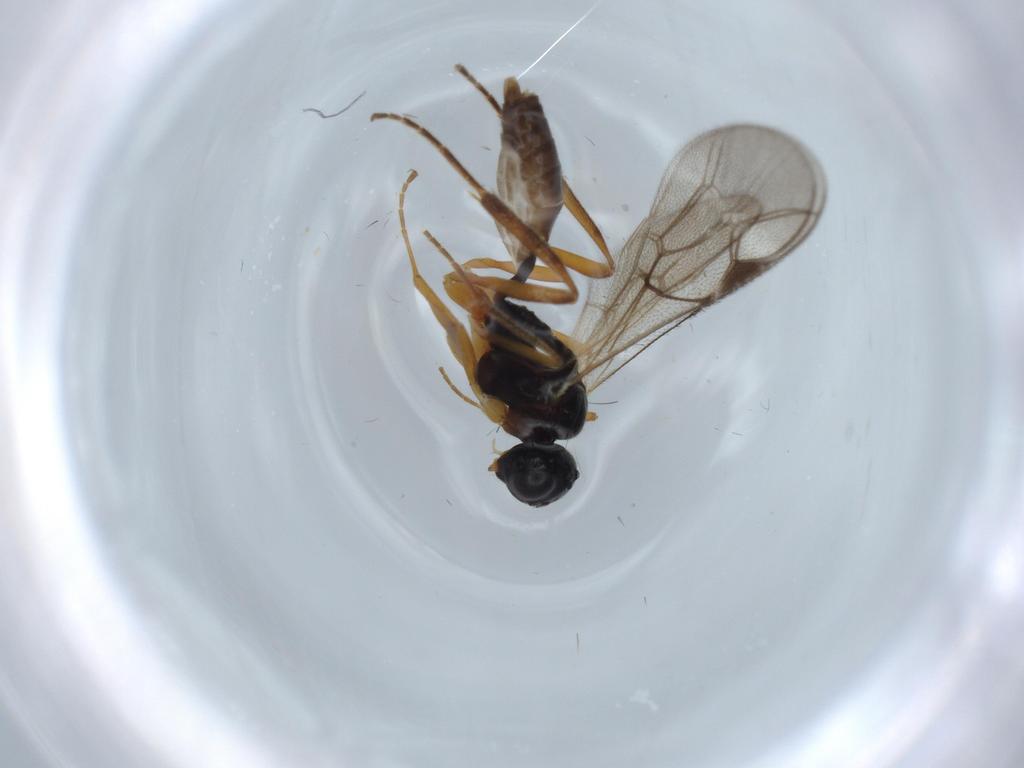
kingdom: Animalia
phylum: Arthropoda
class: Insecta
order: Hymenoptera
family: Ichneumonidae
